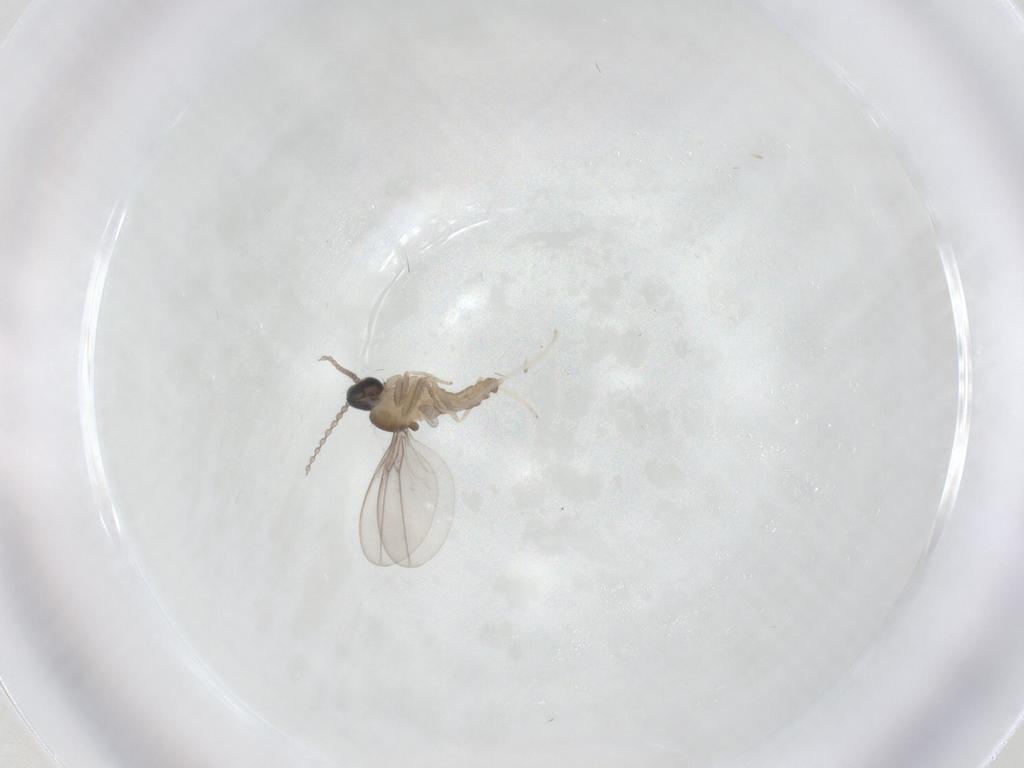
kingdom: Animalia
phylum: Arthropoda
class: Insecta
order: Diptera
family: Cecidomyiidae
